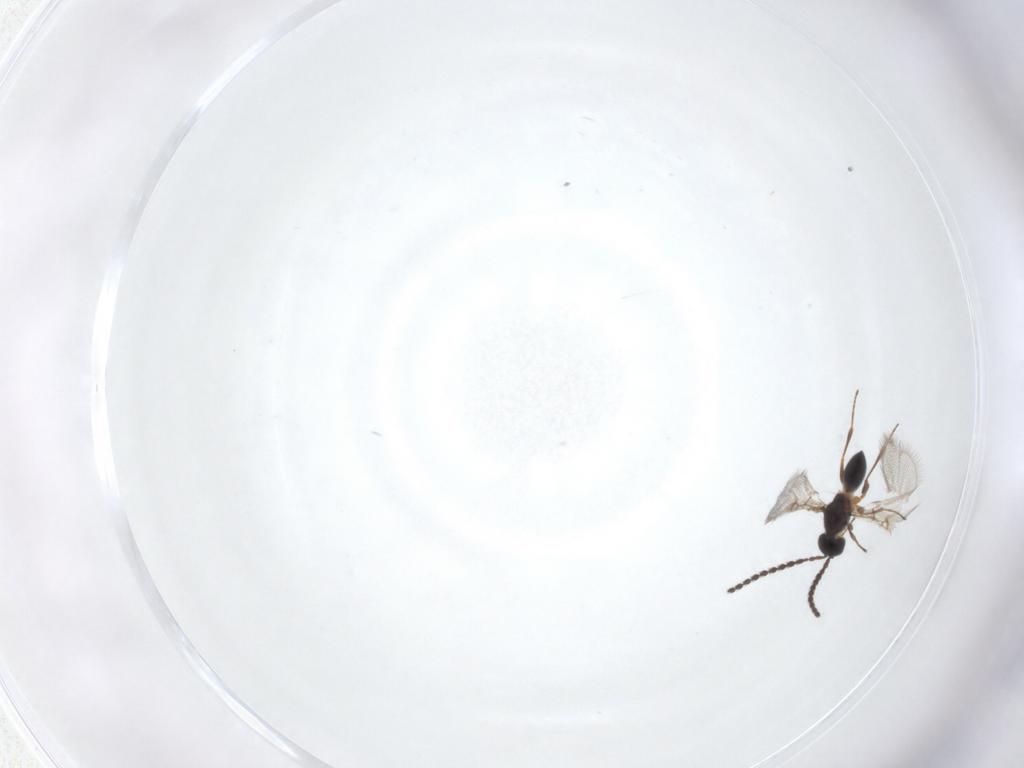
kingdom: Animalia
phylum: Arthropoda
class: Insecta
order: Hymenoptera
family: Figitidae
